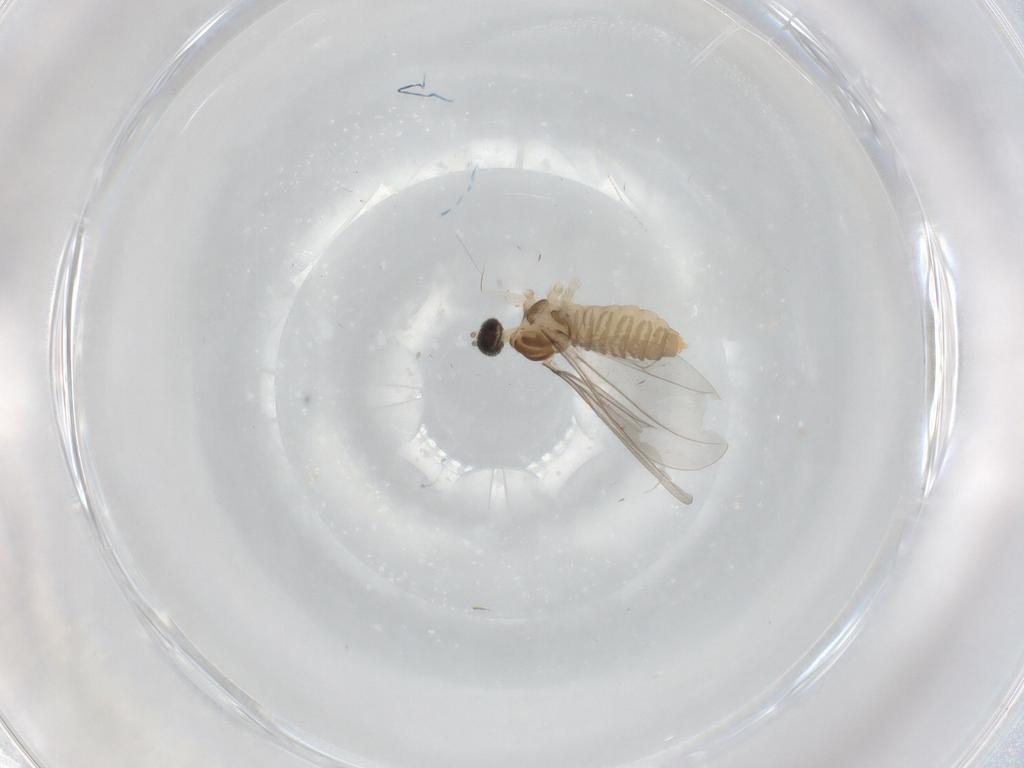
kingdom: Animalia
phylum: Arthropoda
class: Insecta
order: Diptera
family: Cecidomyiidae
